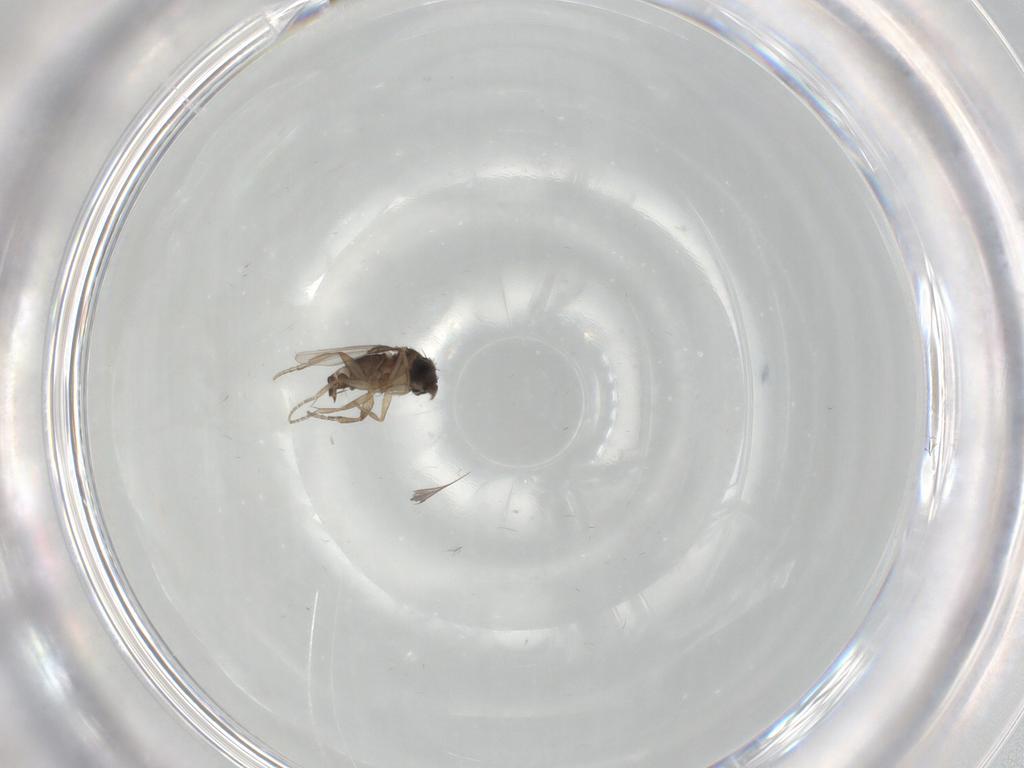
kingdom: Animalia
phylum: Arthropoda
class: Insecta
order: Diptera
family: Phoridae
